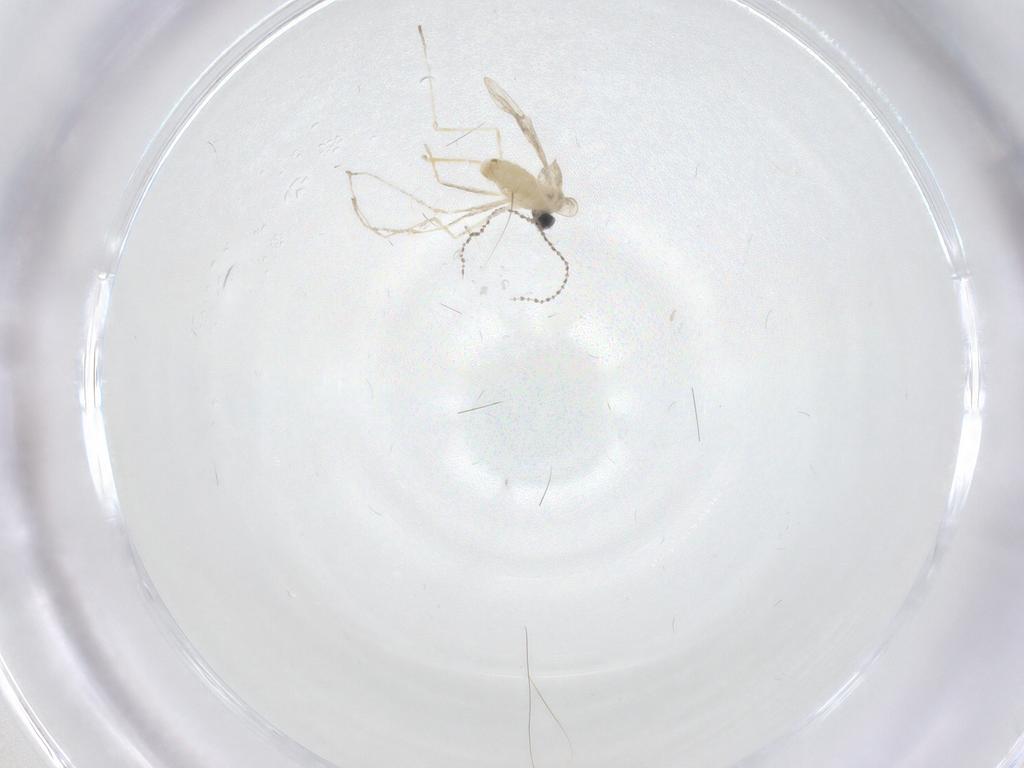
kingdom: Animalia
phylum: Arthropoda
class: Insecta
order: Diptera
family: Cecidomyiidae
